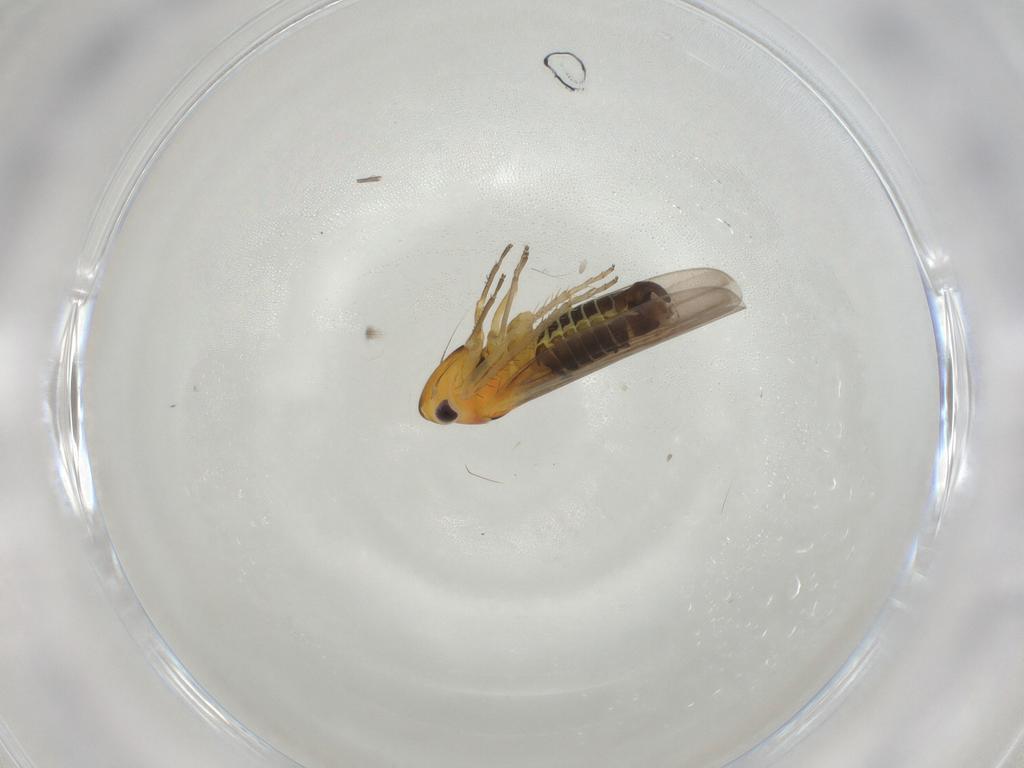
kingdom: Animalia
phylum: Arthropoda
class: Insecta
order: Hemiptera
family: Cicadellidae
